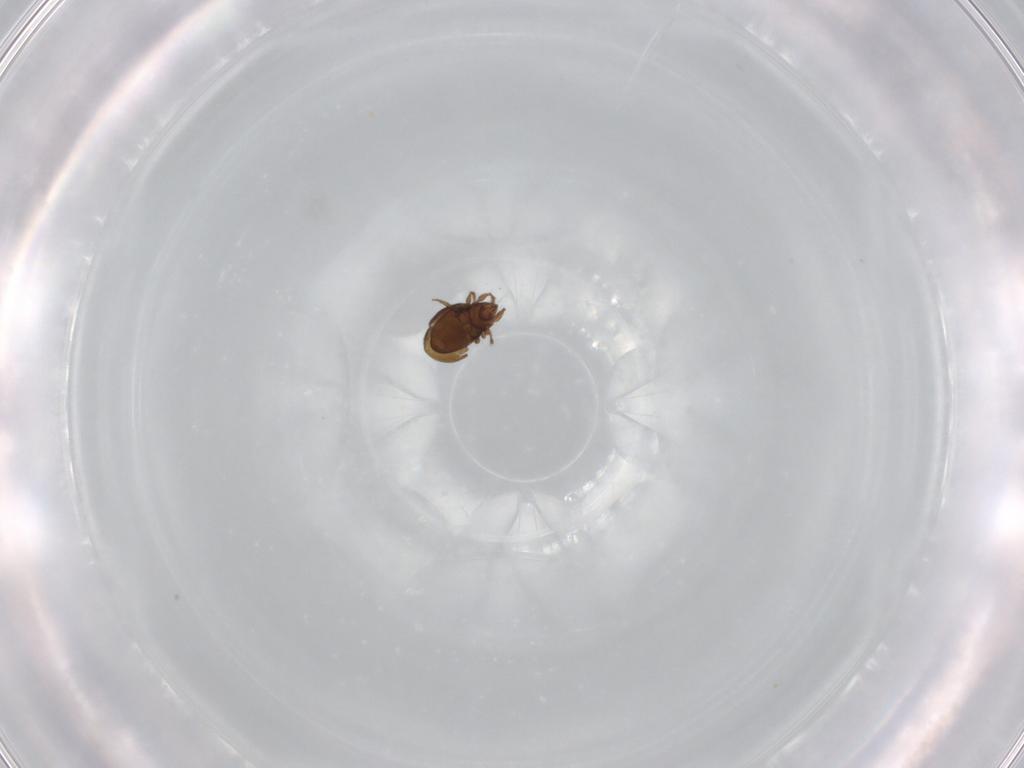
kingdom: Animalia
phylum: Arthropoda
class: Arachnida
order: Sarcoptiformes
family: Oribatulidae
